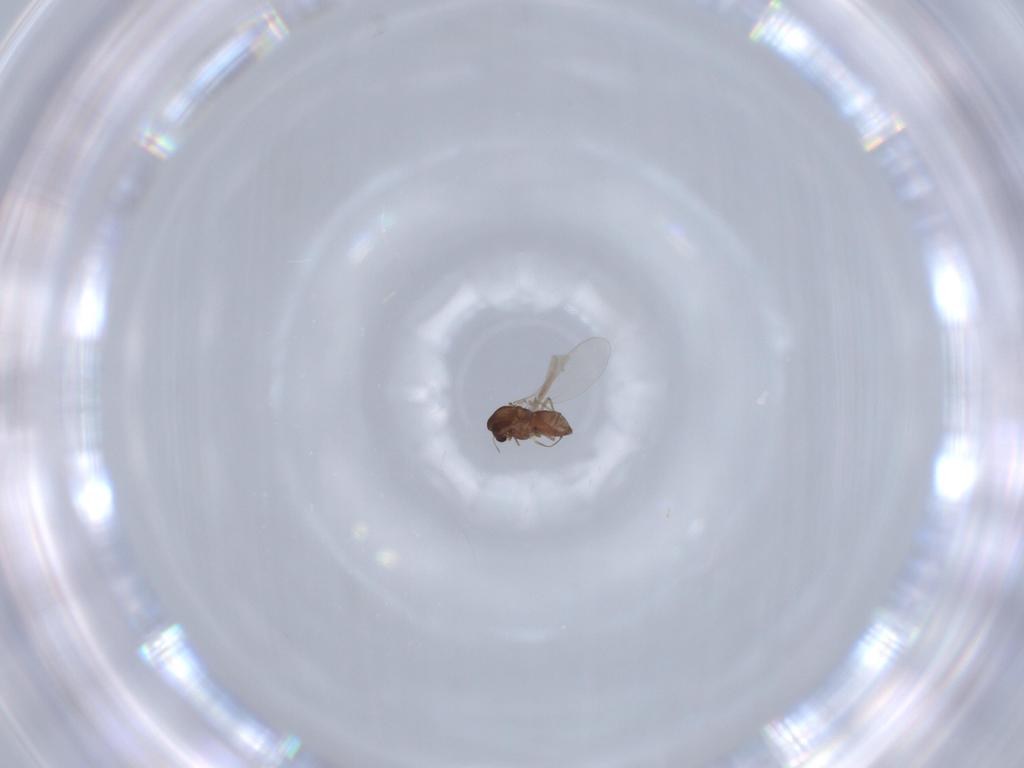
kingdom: Animalia
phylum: Arthropoda
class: Insecta
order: Diptera
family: Chironomidae
